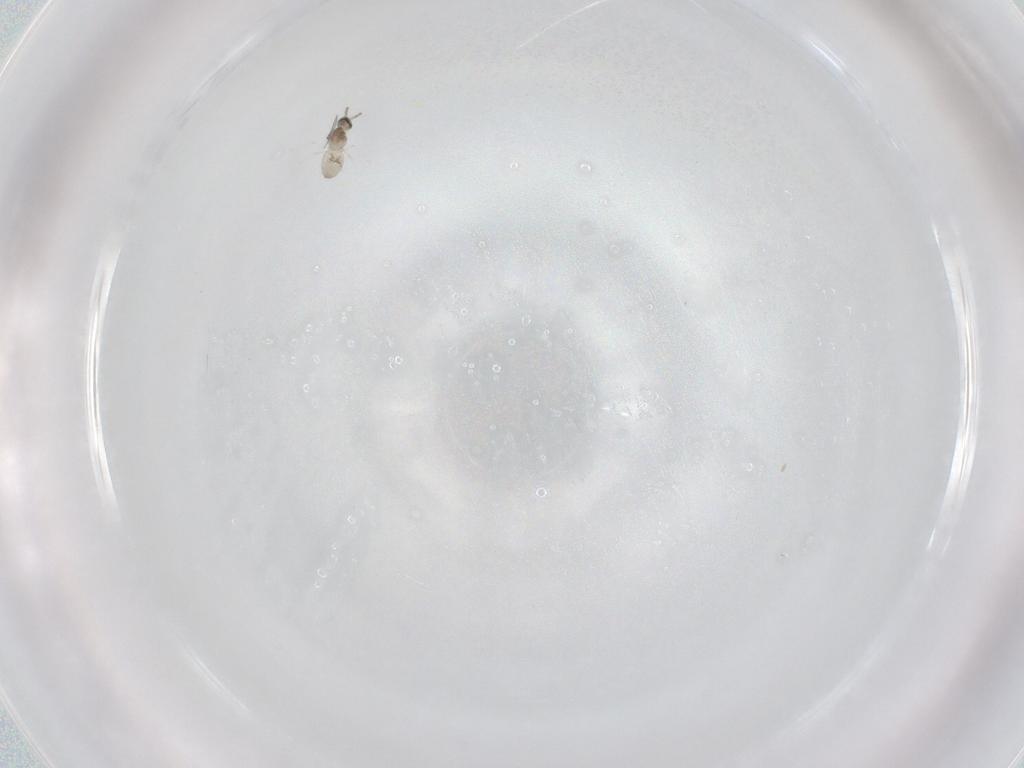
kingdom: Animalia
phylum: Arthropoda
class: Insecta
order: Diptera
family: Cecidomyiidae
